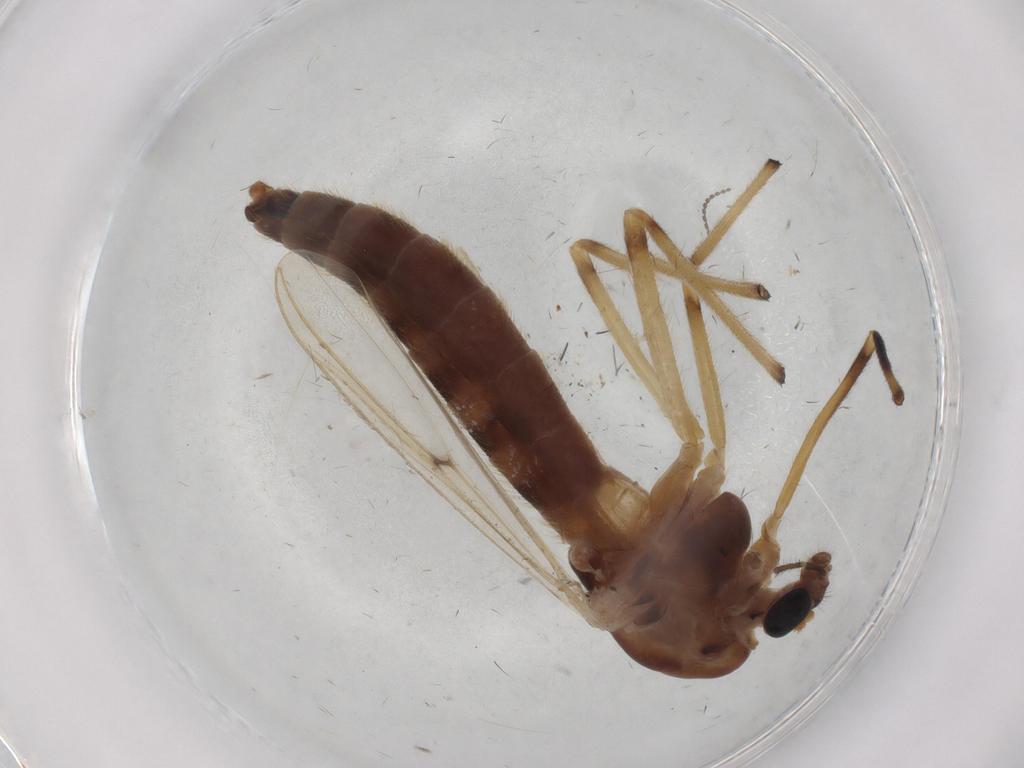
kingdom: Animalia
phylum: Arthropoda
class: Insecta
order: Diptera
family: Chironomidae
